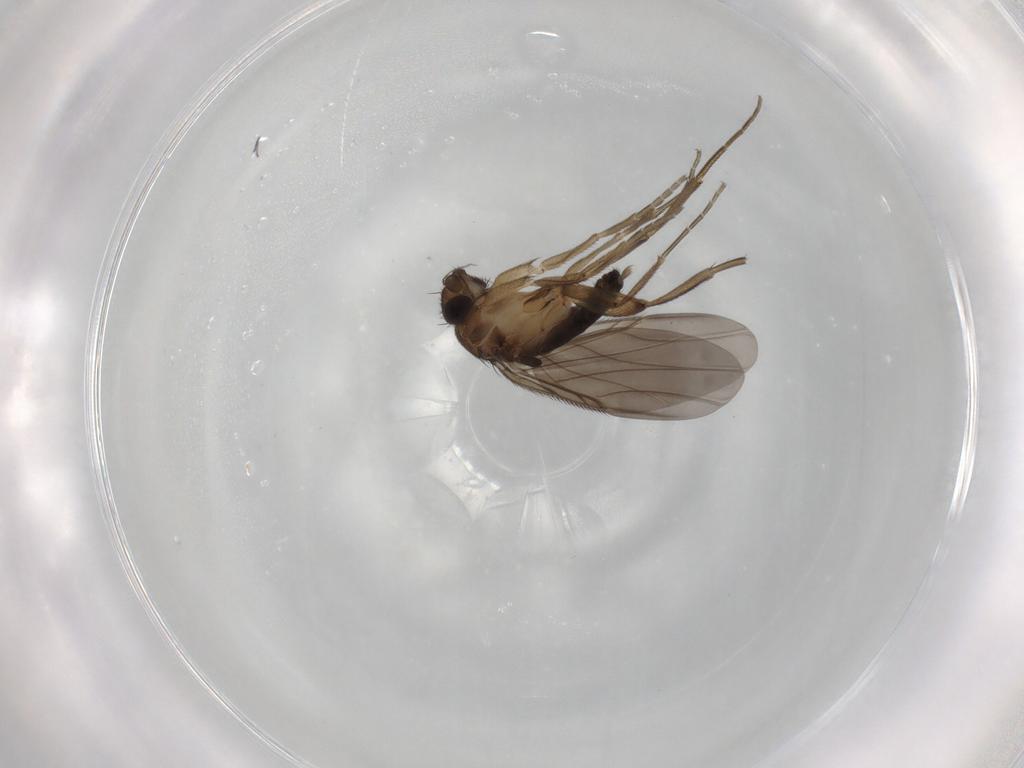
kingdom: Animalia
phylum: Arthropoda
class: Insecta
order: Diptera
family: Phoridae
